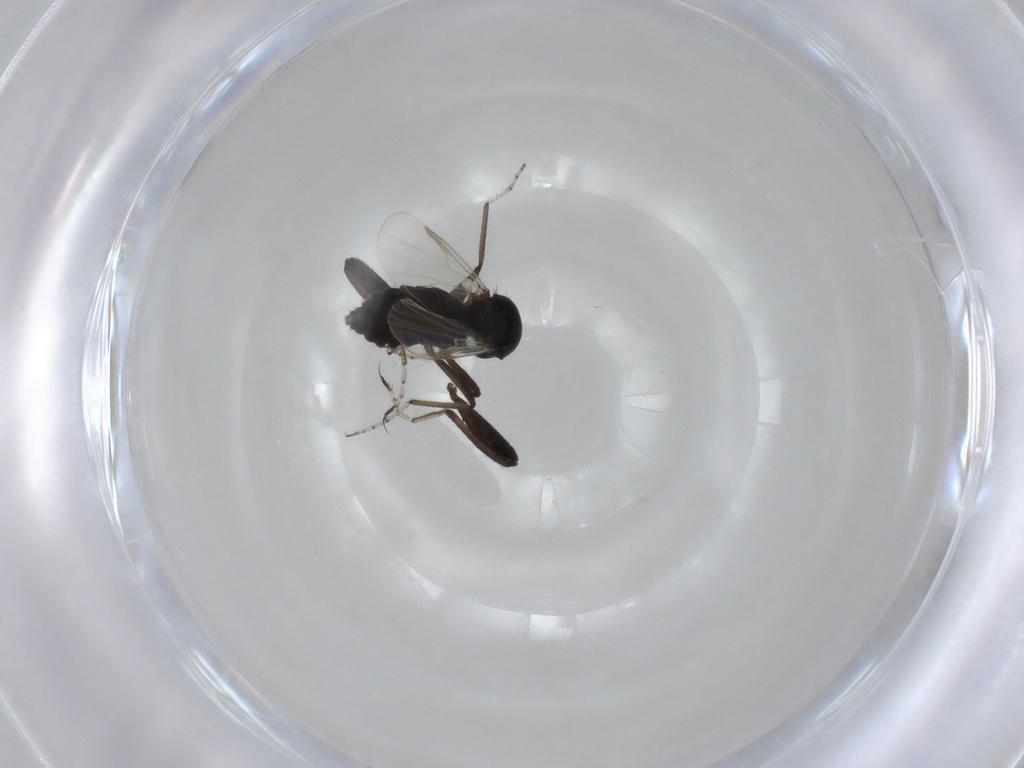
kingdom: Animalia
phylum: Arthropoda
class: Insecta
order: Diptera
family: Ceratopogonidae
